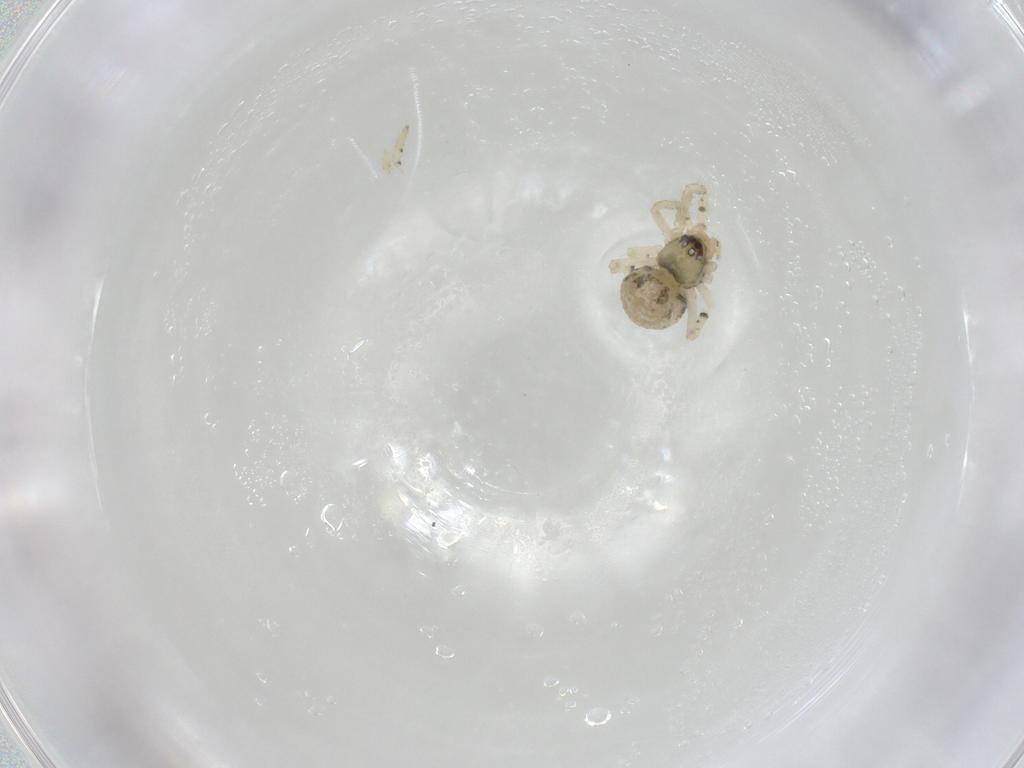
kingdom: Animalia
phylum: Arthropoda
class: Arachnida
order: Araneae
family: Theridiidae
